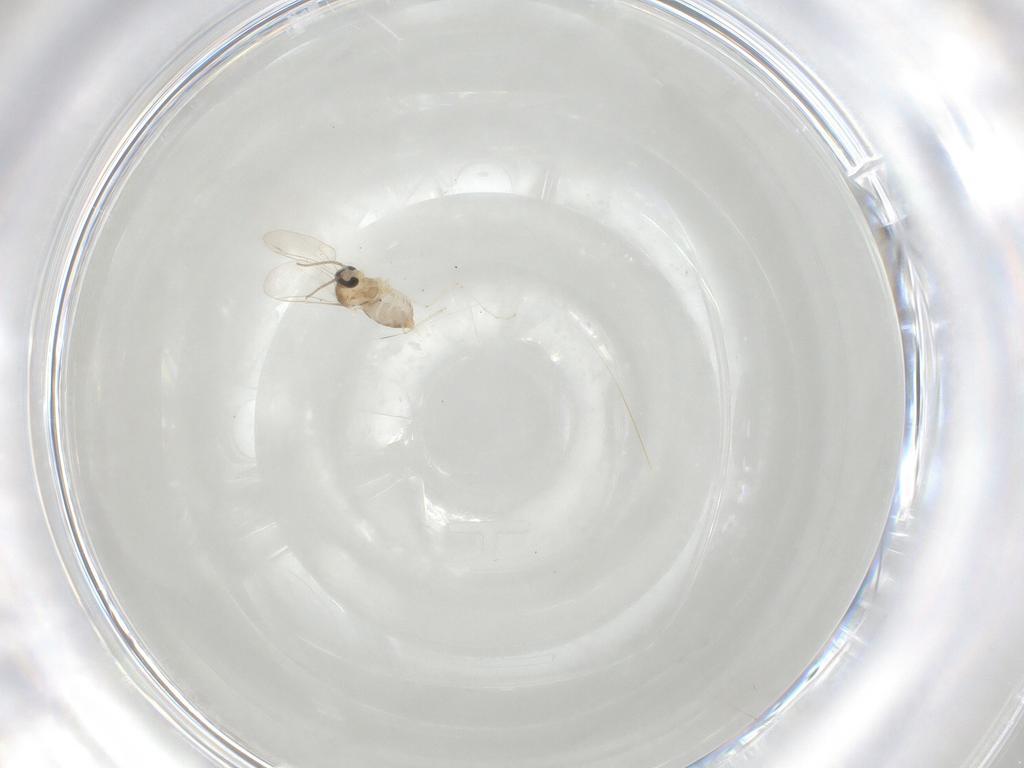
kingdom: Animalia
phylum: Arthropoda
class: Insecta
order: Diptera
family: Cecidomyiidae
